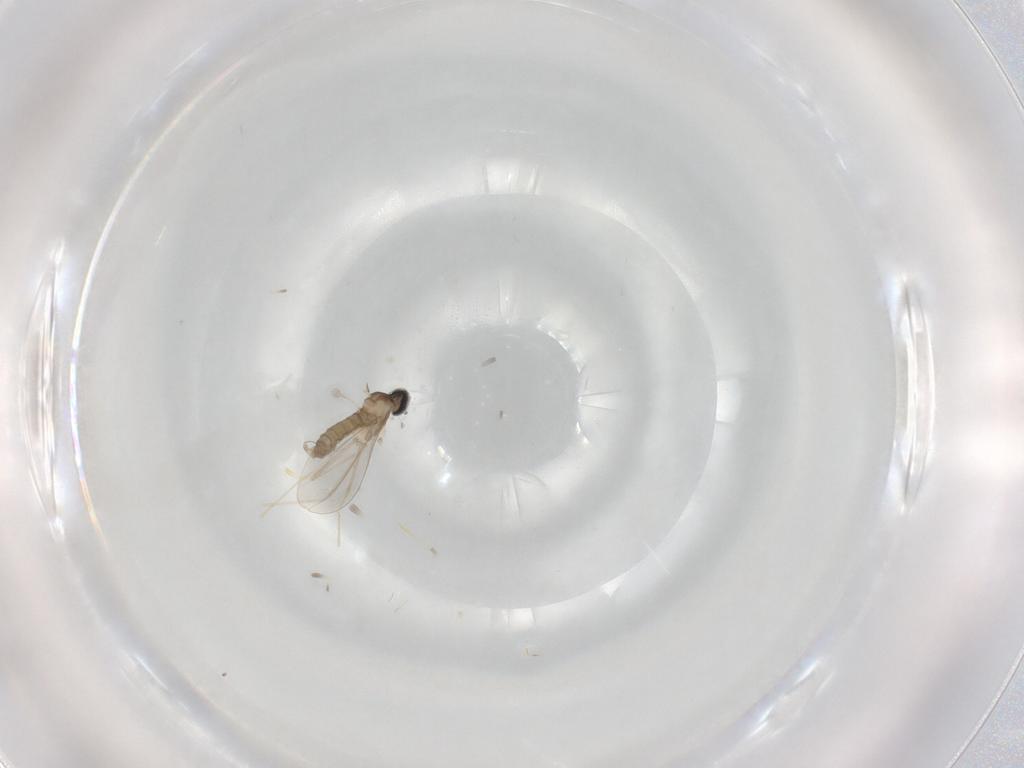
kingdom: Animalia
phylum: Arthropoda
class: Insecta
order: Diptera
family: Cecidomyiidae
